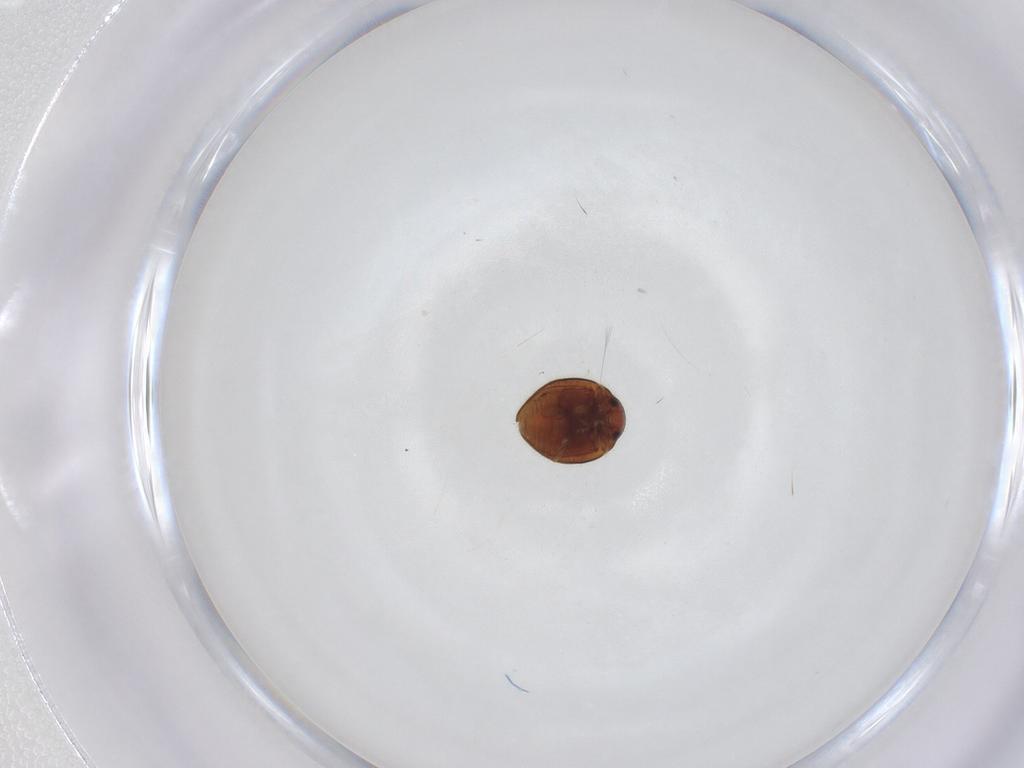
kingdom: Animalia
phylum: Arthropoda
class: Insecta
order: Coleoptera
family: Coccinellidae
